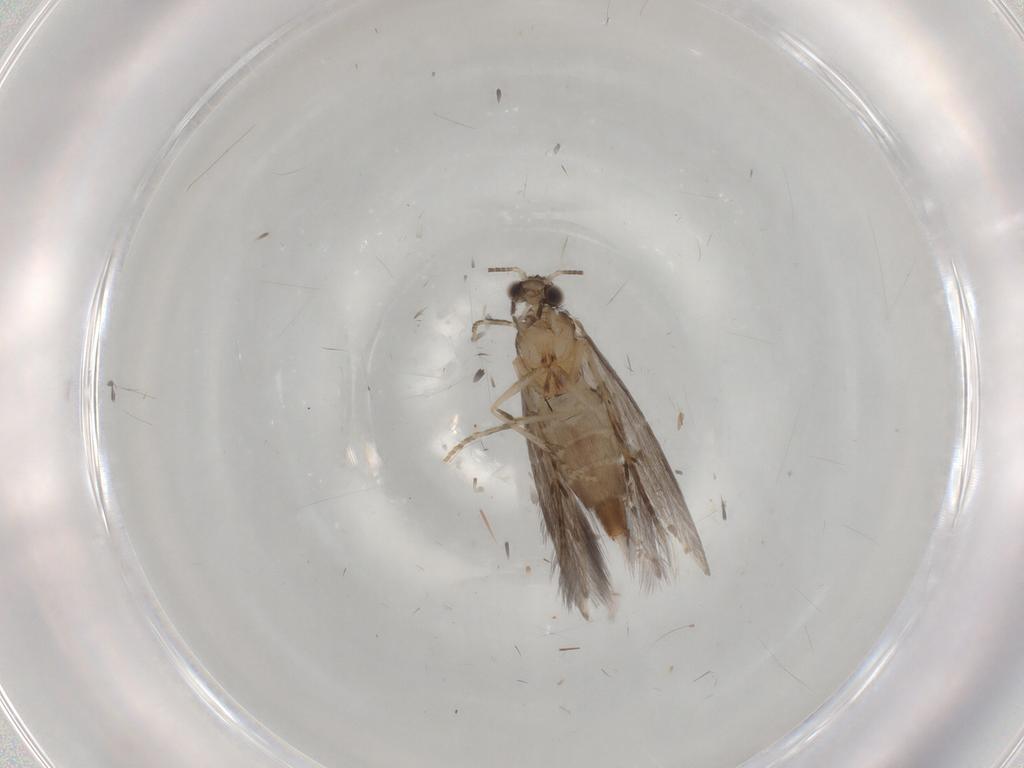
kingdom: Animalia
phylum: Arthropoda
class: Insecta
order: Trichoptera
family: Hydroptilidae
